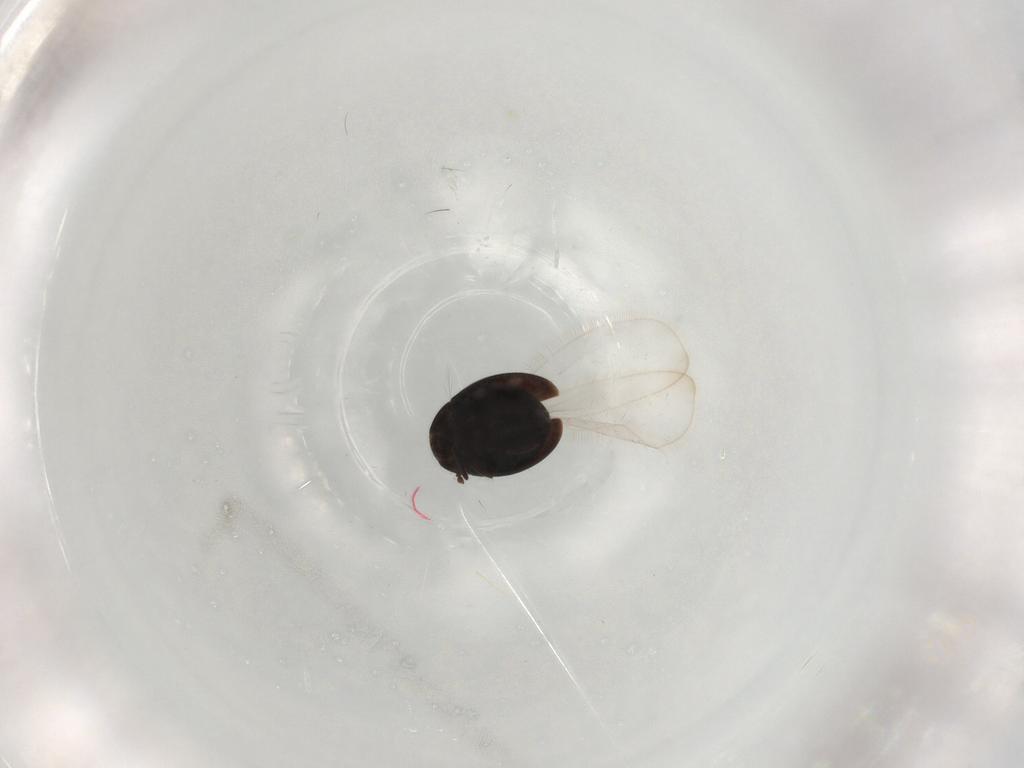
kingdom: Animalia
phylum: Arthropoda
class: Insecta
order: Coleoptera
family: Corylophidae
